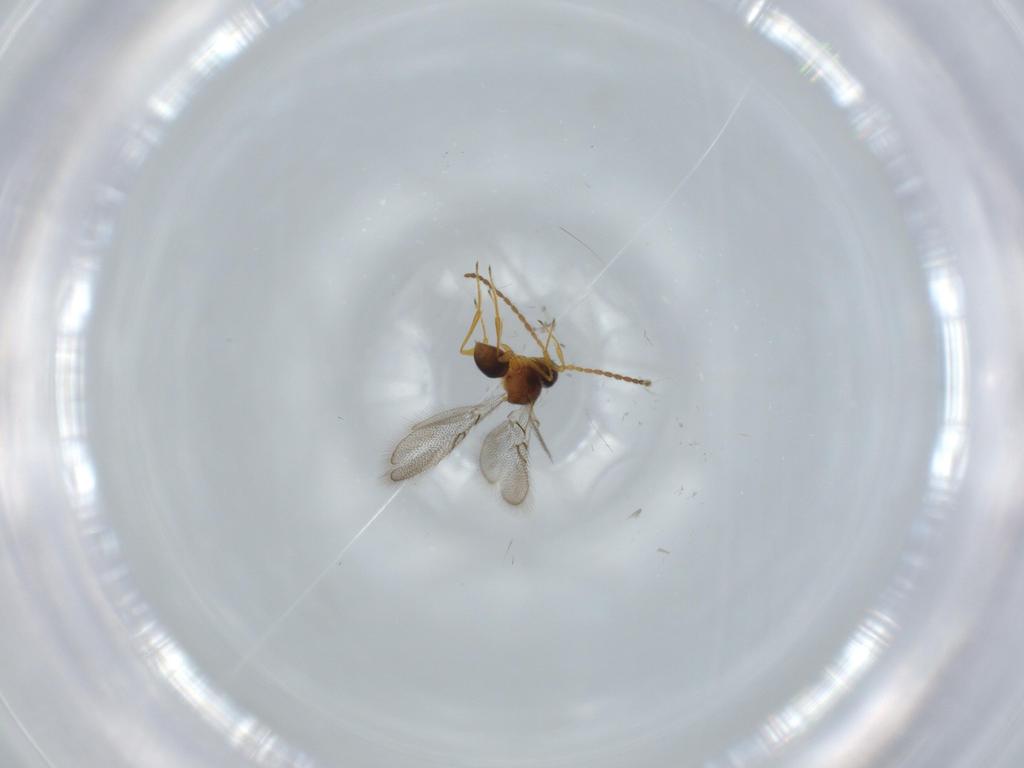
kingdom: Animalia
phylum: Arthropoda
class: Insecta
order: Hymenoptera
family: Figitidae
